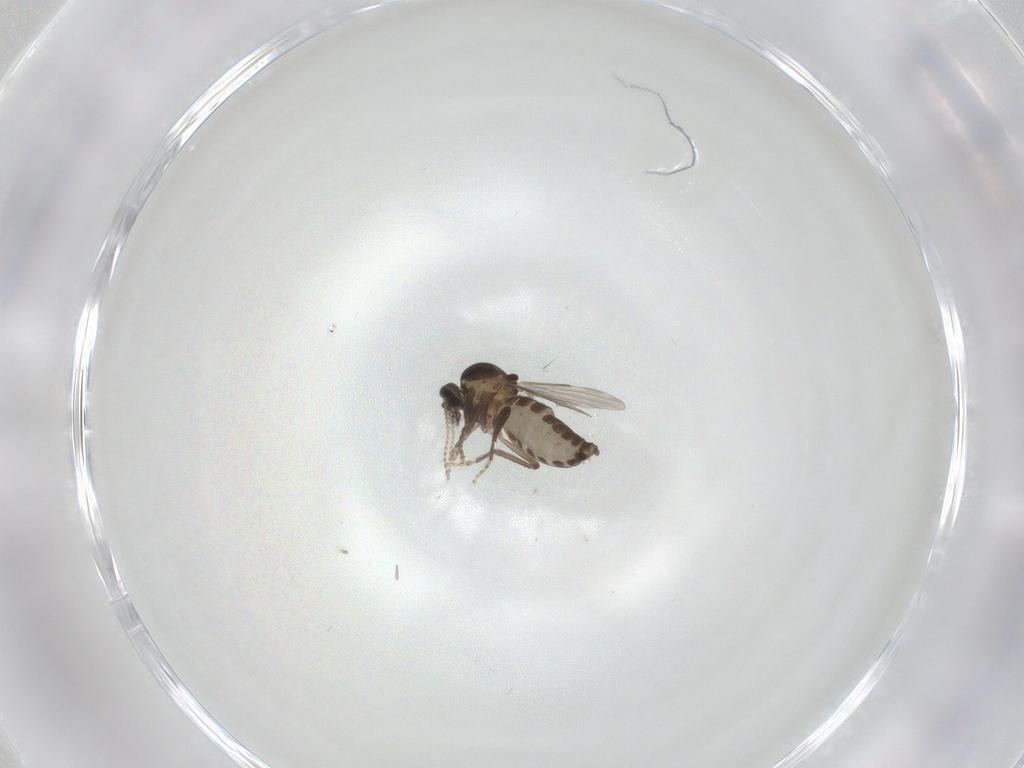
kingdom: Animalia
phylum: Arthropoda
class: Insecta
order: Diptera
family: Ceratopogonidae
